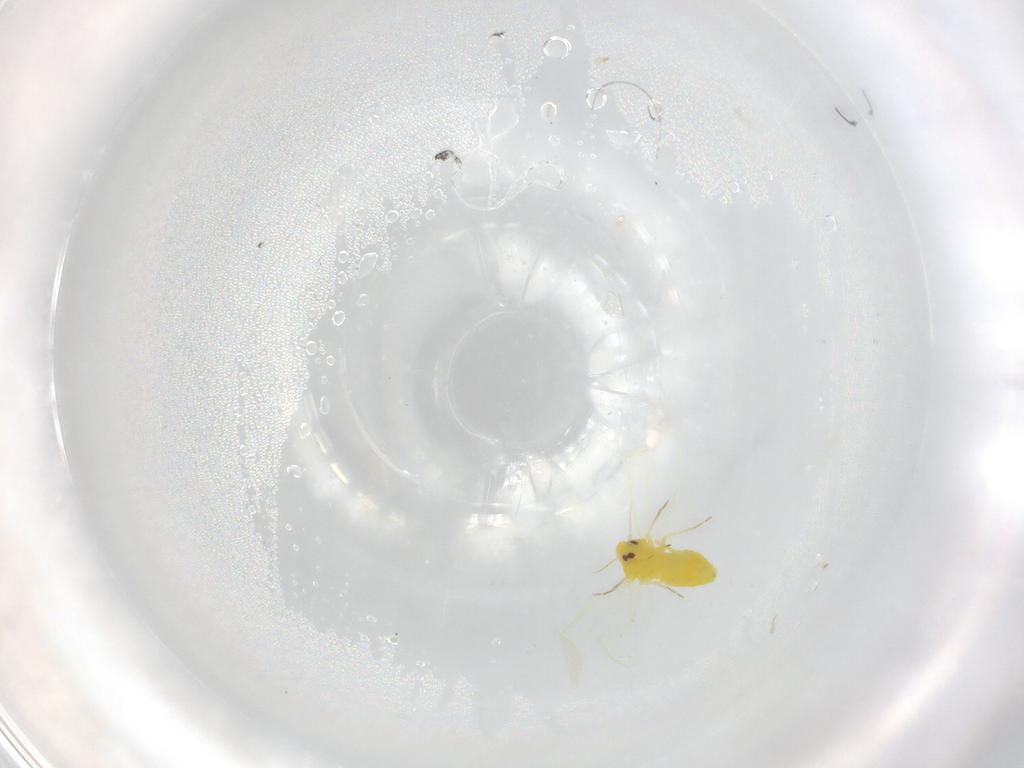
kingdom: Animalia
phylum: Arthropoda
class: Insecta
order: Hemiptera
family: Aleyrodidae
